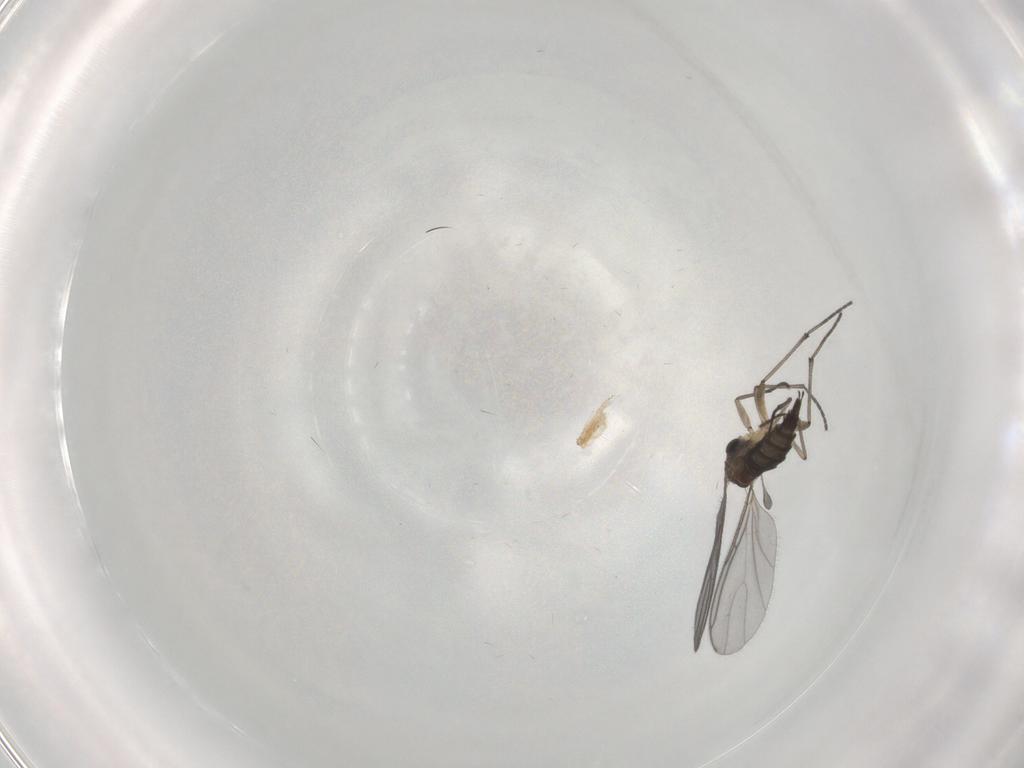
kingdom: Animalia
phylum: Arthropoda
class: Insecta
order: Diptera
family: Sciaridae
